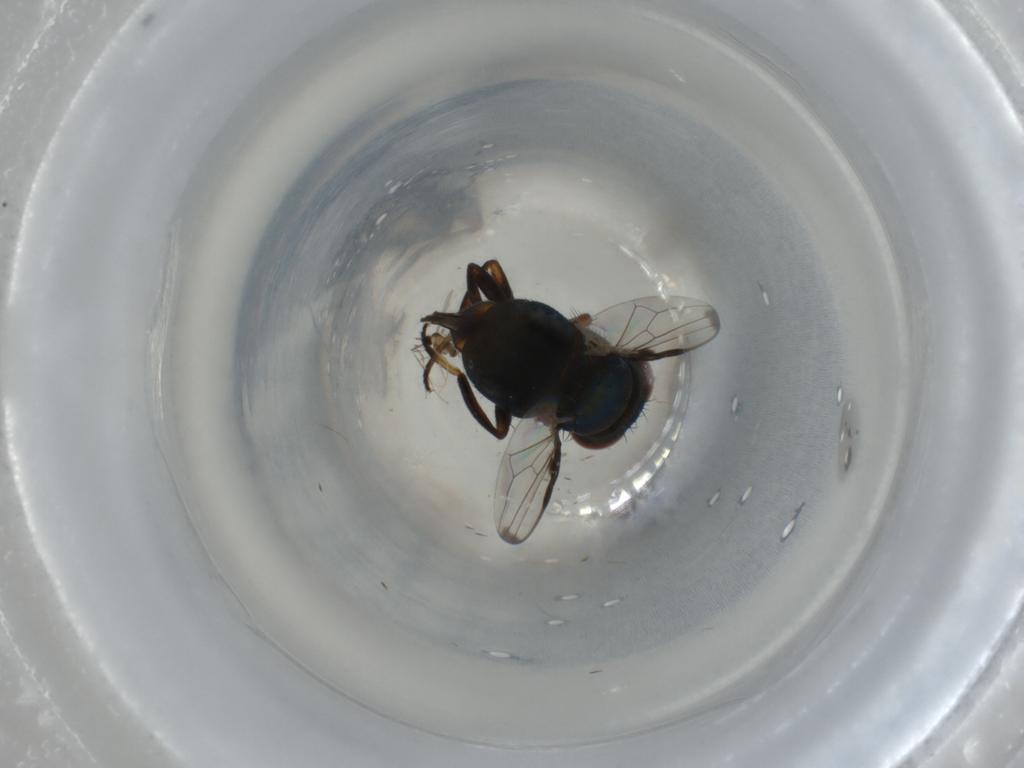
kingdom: Animalia
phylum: Arthropoda
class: Insecta
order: Diptera
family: Ulidiidae
